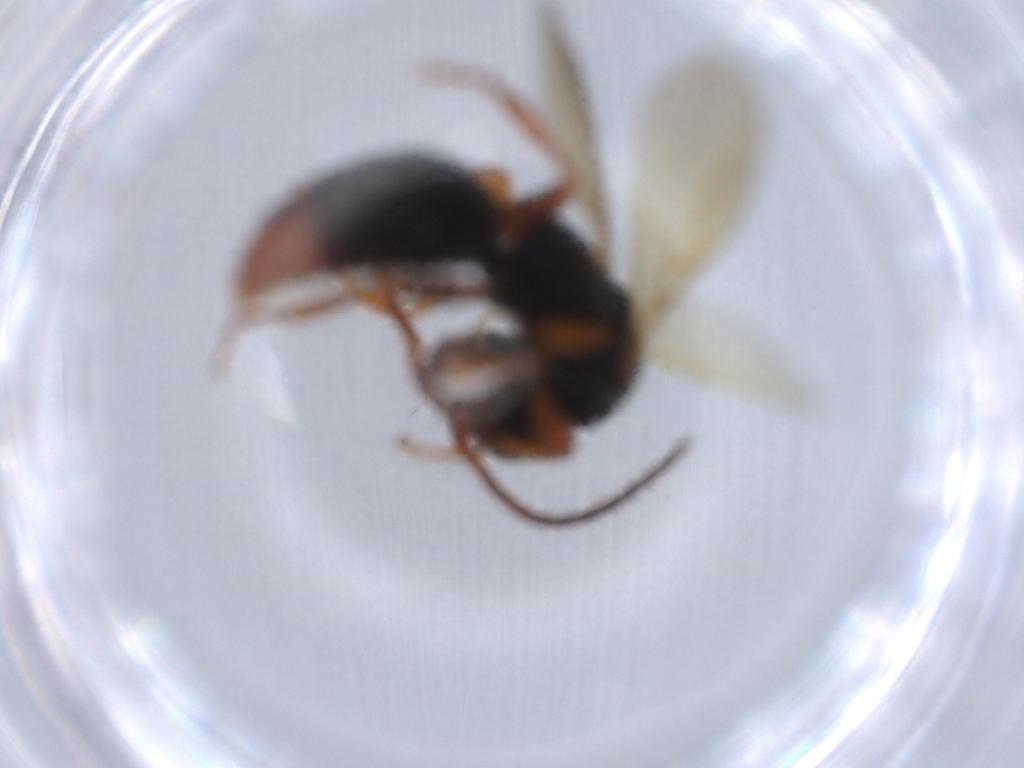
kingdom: Animalia
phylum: Arthropoda
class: Insecta
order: Hymenoptera
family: Bethylidae
